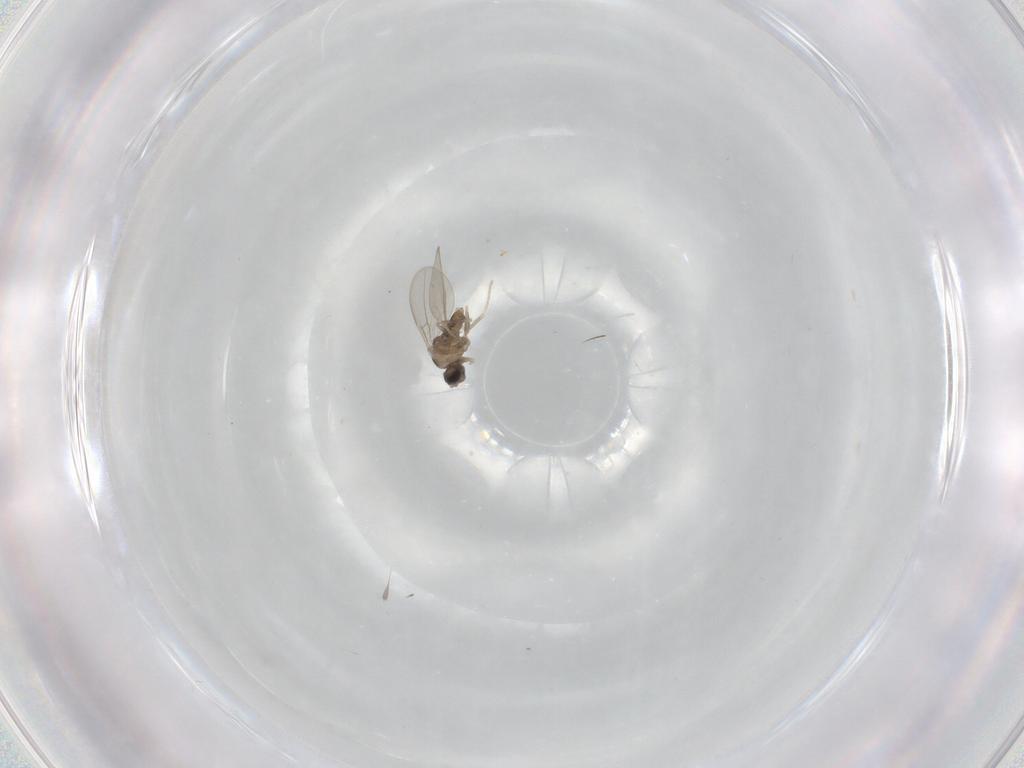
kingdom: Animalia
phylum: Arthropoda
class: Insecta
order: Diptera
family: Cecidomyiidae
